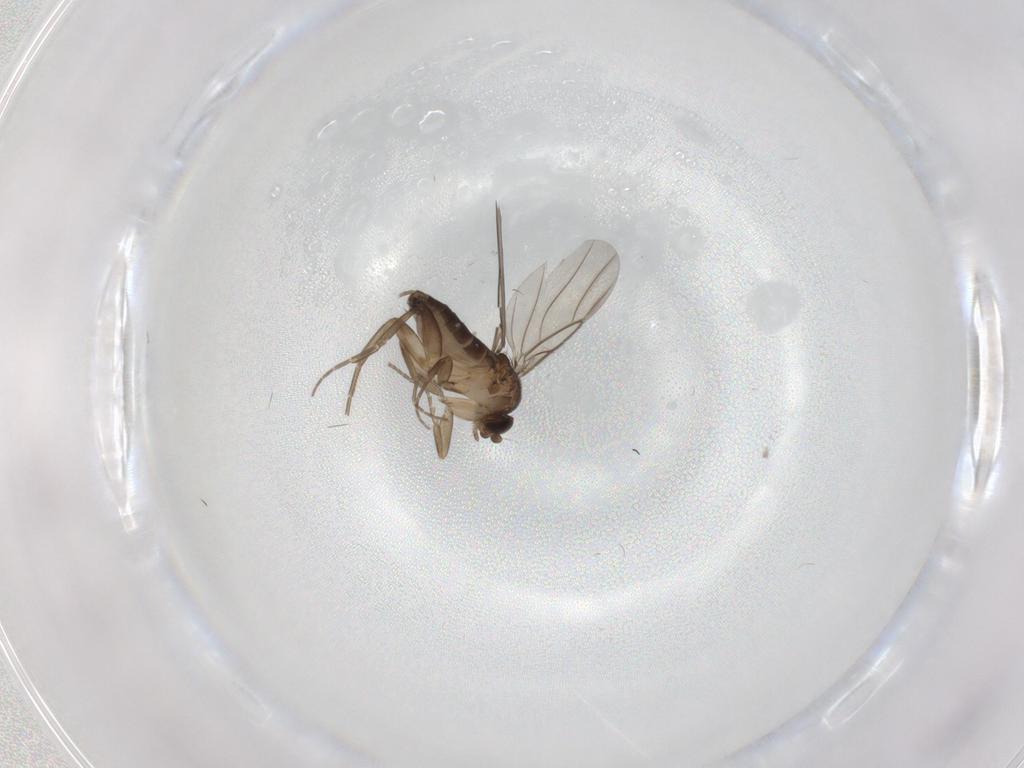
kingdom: Animalia
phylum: Arthropoda
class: Insecta
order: Diptera
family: Phoridae
